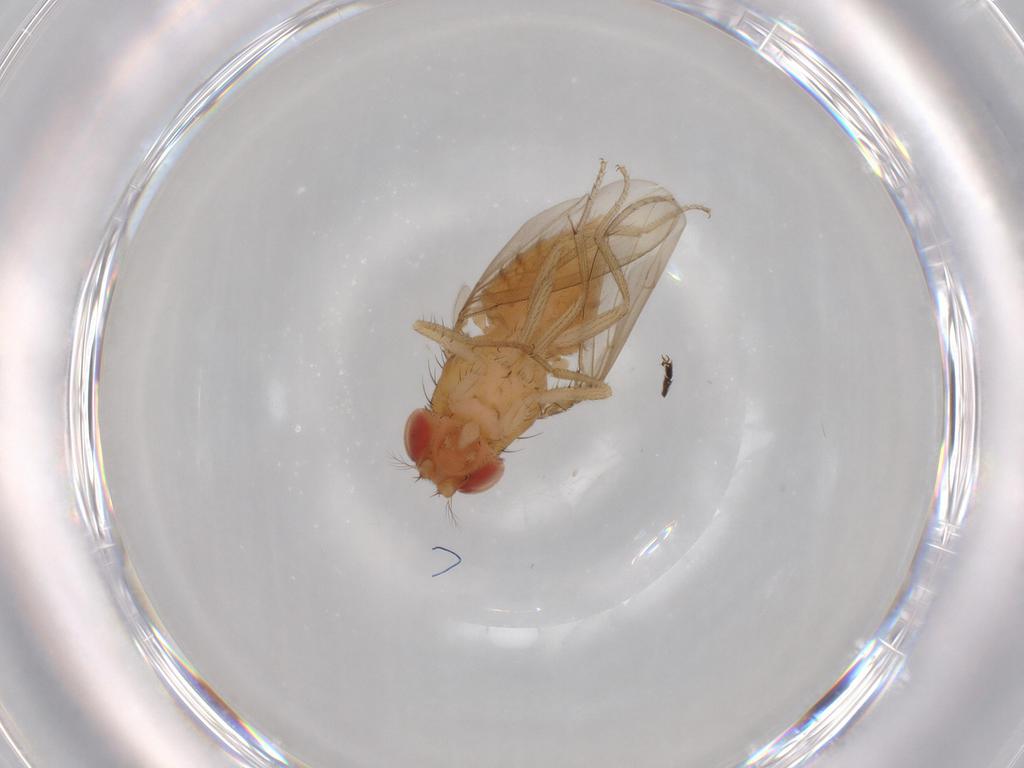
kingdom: Animalia
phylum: Arthropoda
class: Insecta
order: Diptera
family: Drosophilidae
